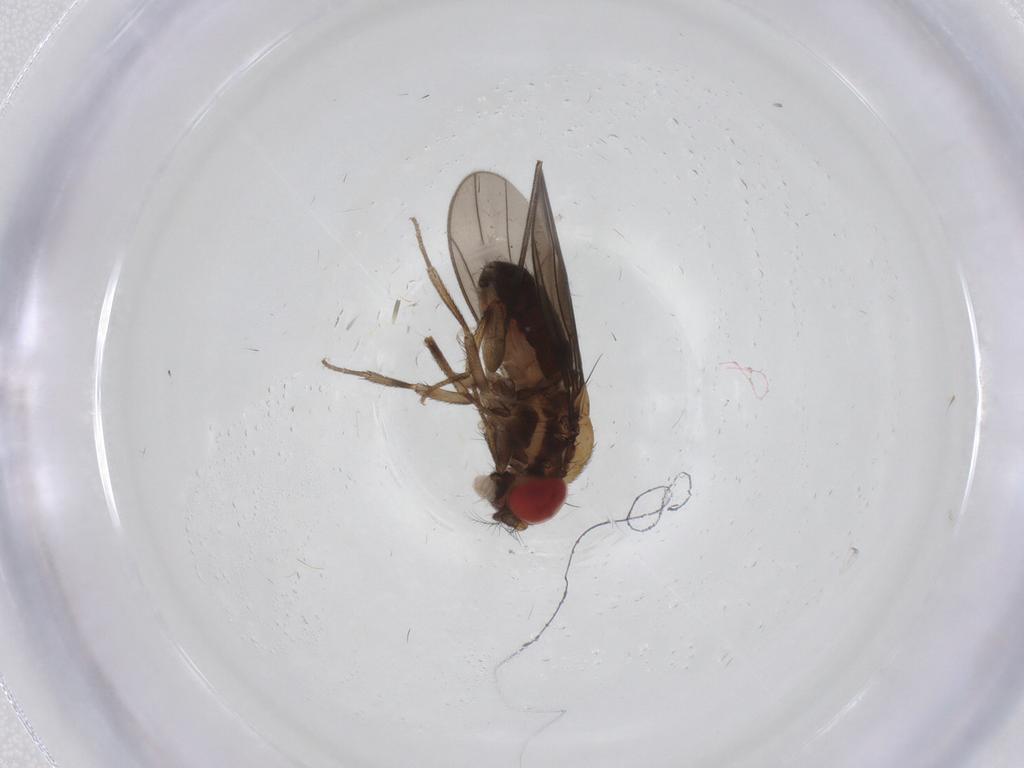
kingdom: Animalia
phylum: Arthropoda
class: Insecta
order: Diptera
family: Drosophilidae
